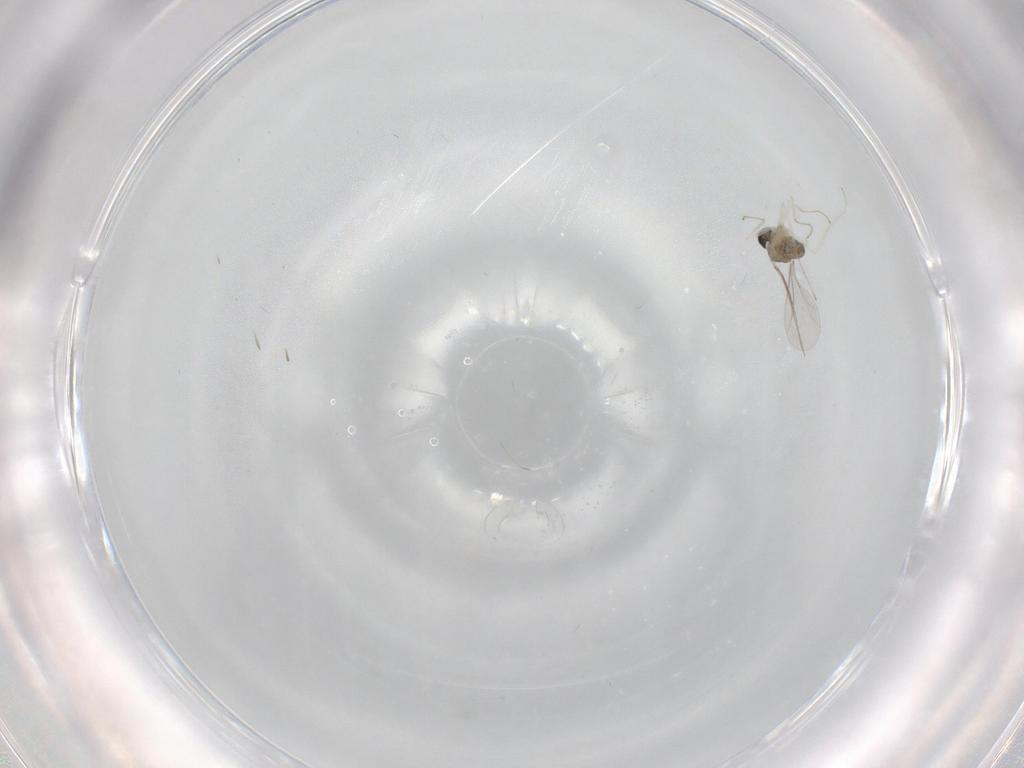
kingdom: Animalia
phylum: Arthropoda
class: Insecta
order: Diptera
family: Cecidomyiidae
